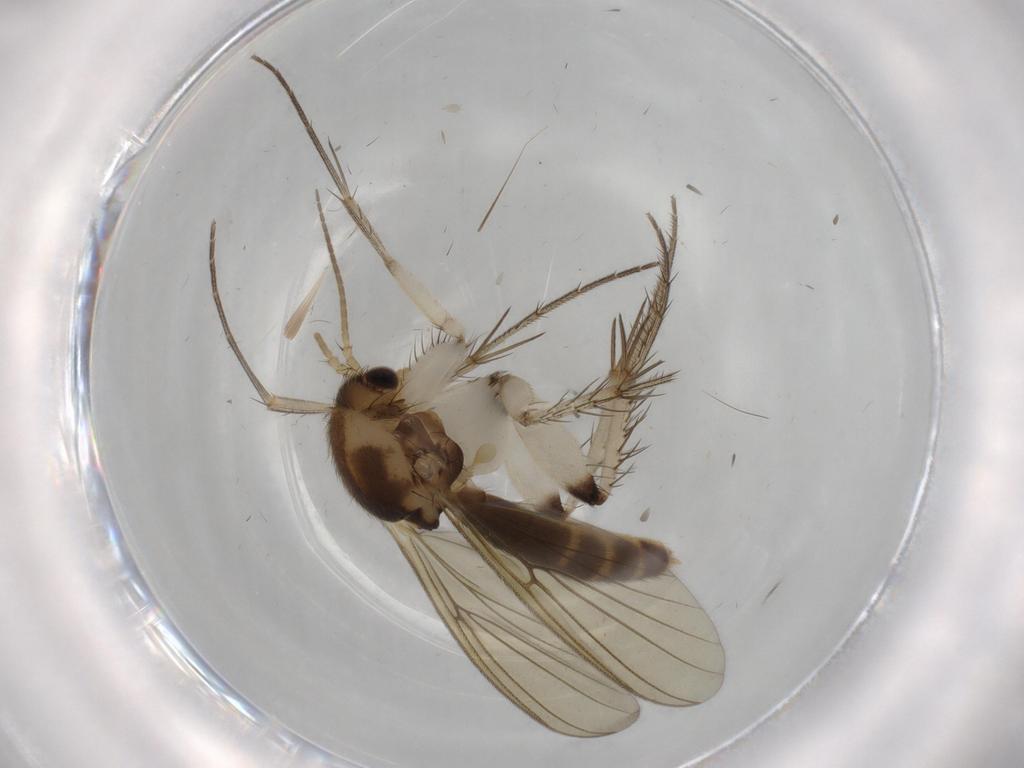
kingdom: Animalia
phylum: Arthropoda
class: Insecta
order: Diptera
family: Mycetophilidae
